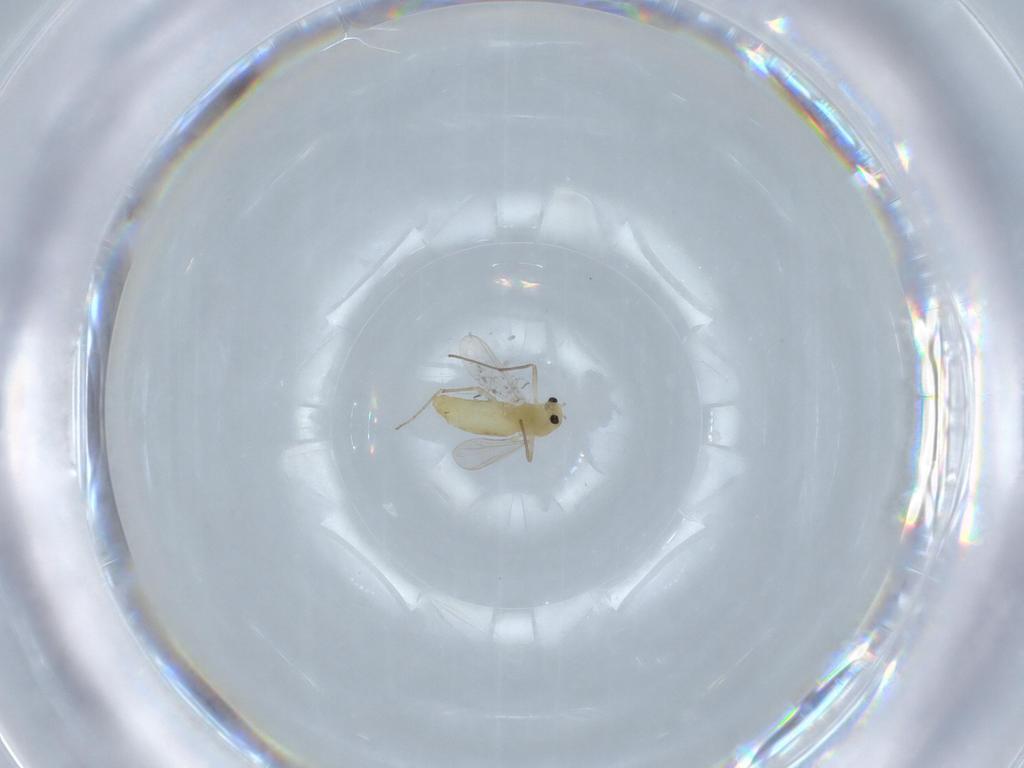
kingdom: Animalia
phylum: Arthropoda
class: Insecta
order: Diptera
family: Chironomidae
